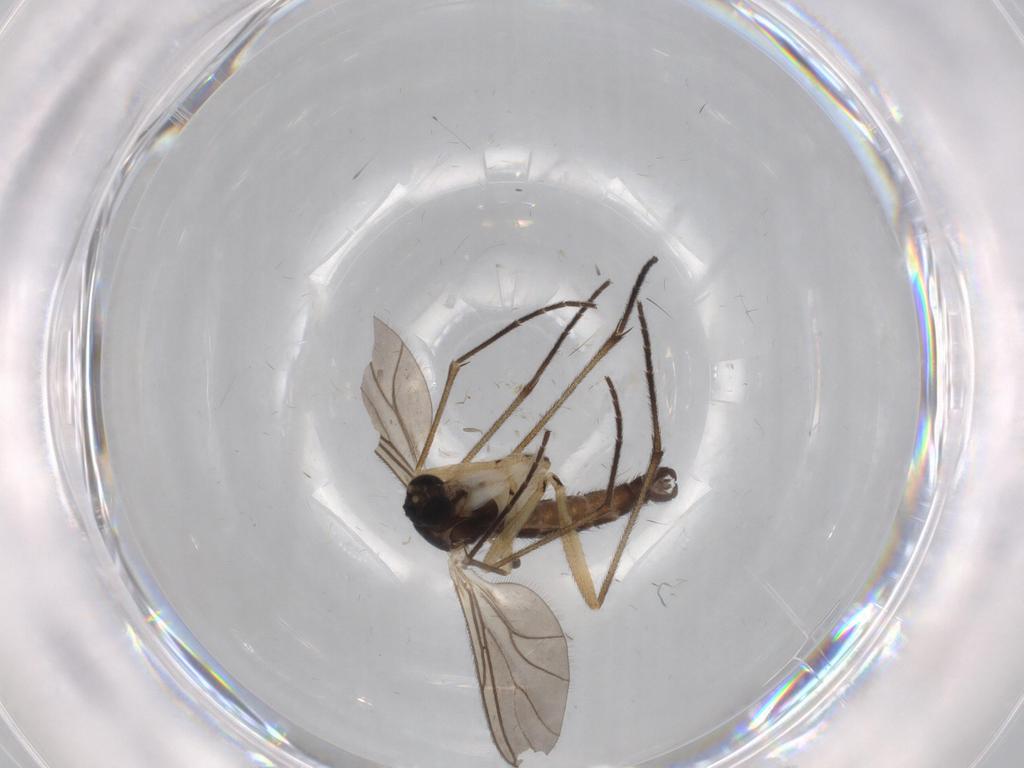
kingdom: Animalia
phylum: Arthropoda
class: Insecta
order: Diptera
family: Sciaridae
